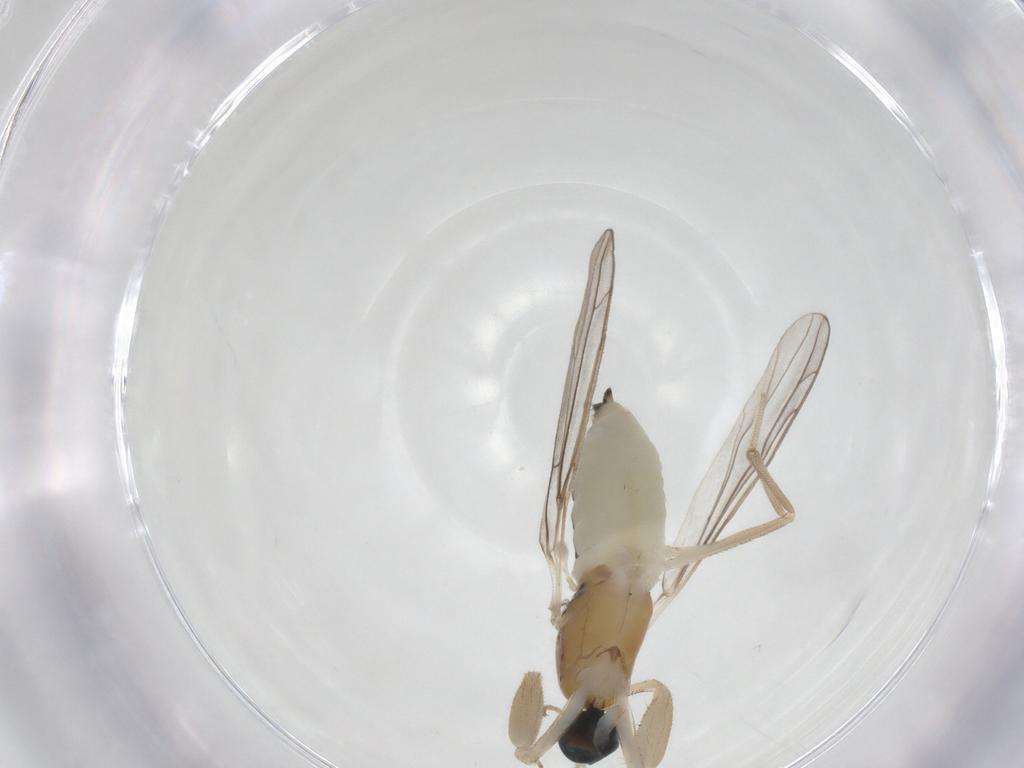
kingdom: Animalia
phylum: Arthropoda
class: Insecta
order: Diptera
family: Empididae
